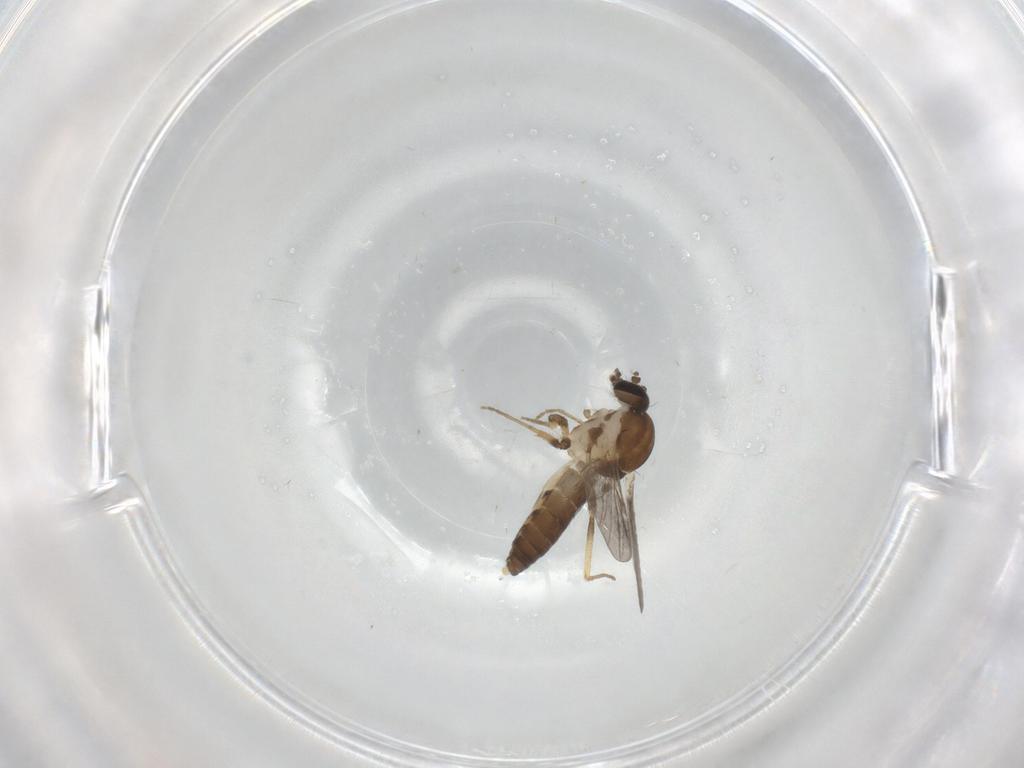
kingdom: Animalia
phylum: Arthropoda
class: Insecta
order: Diptera
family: Ceratopogonidae
